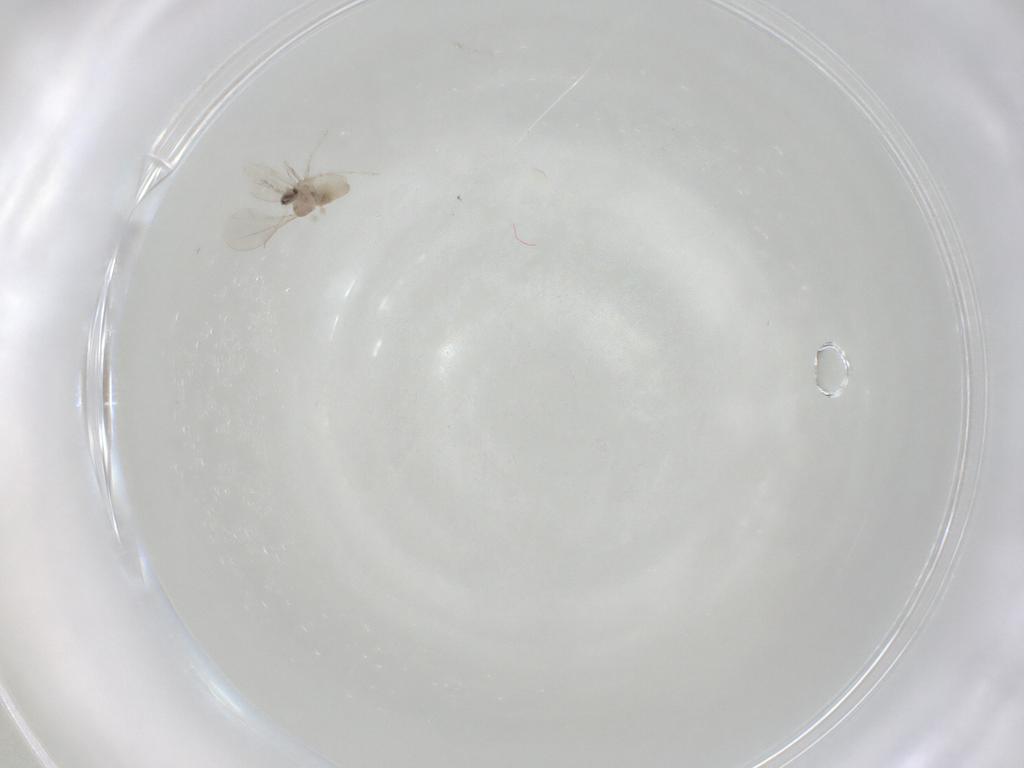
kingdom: Animalia
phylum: Arthropoda
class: Insecta
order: Diptera
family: Cecidomyiidae
